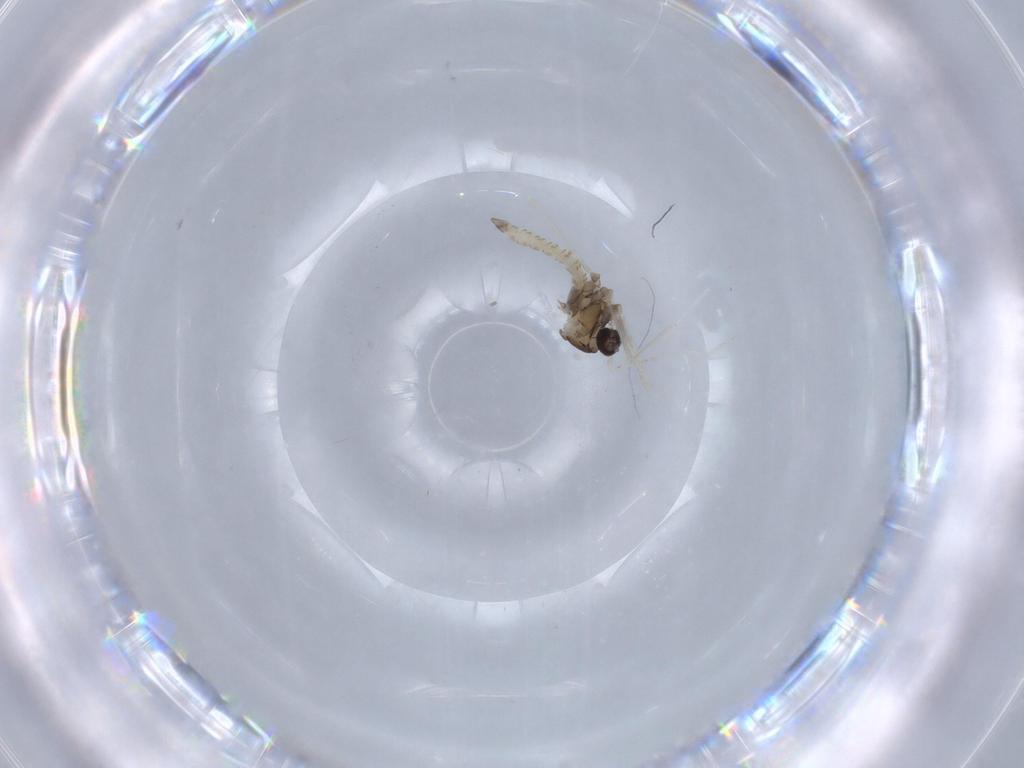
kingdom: Animalia
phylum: Arthropoda
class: Insecta
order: Diptera
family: Cecidomyiidae
